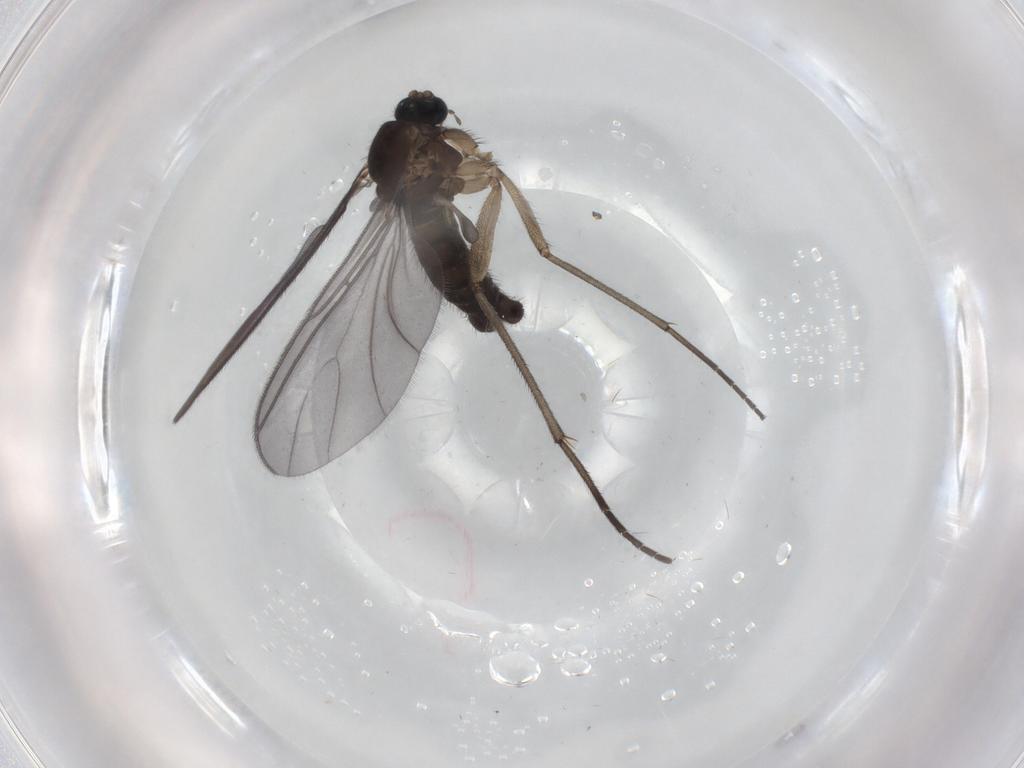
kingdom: Animalia
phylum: Arthropoda
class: Insecta
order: Diptera
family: Sciaridae
